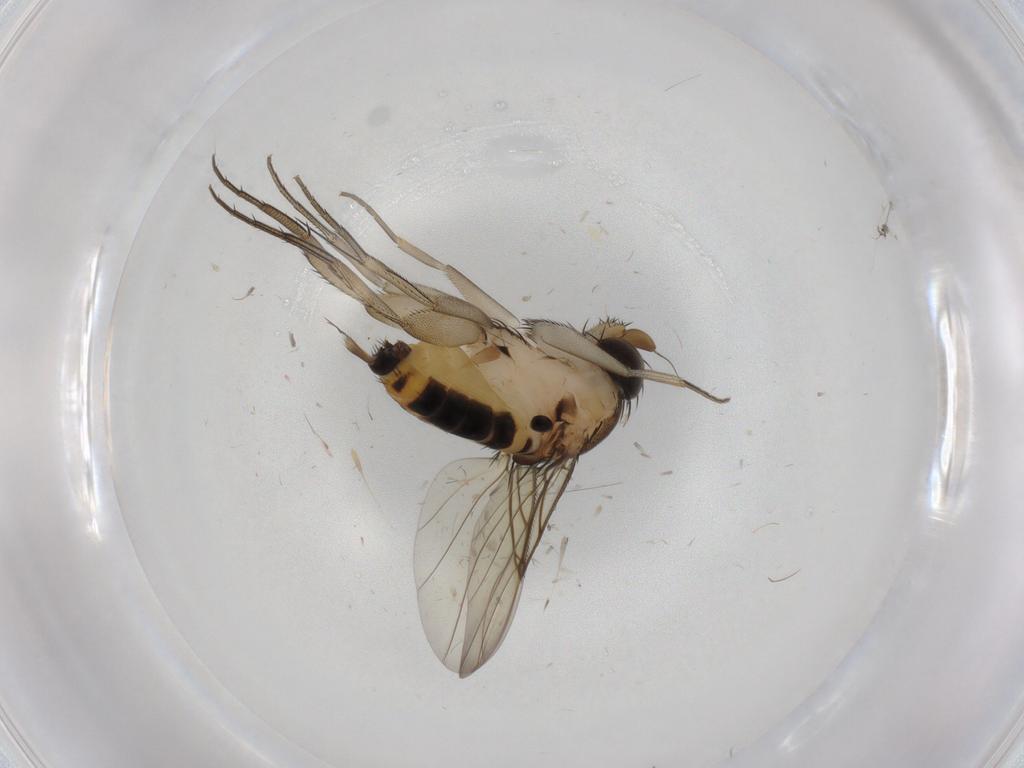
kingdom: Animalia
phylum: Arthropoda
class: Insecta
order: Diptera
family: Phoridae
